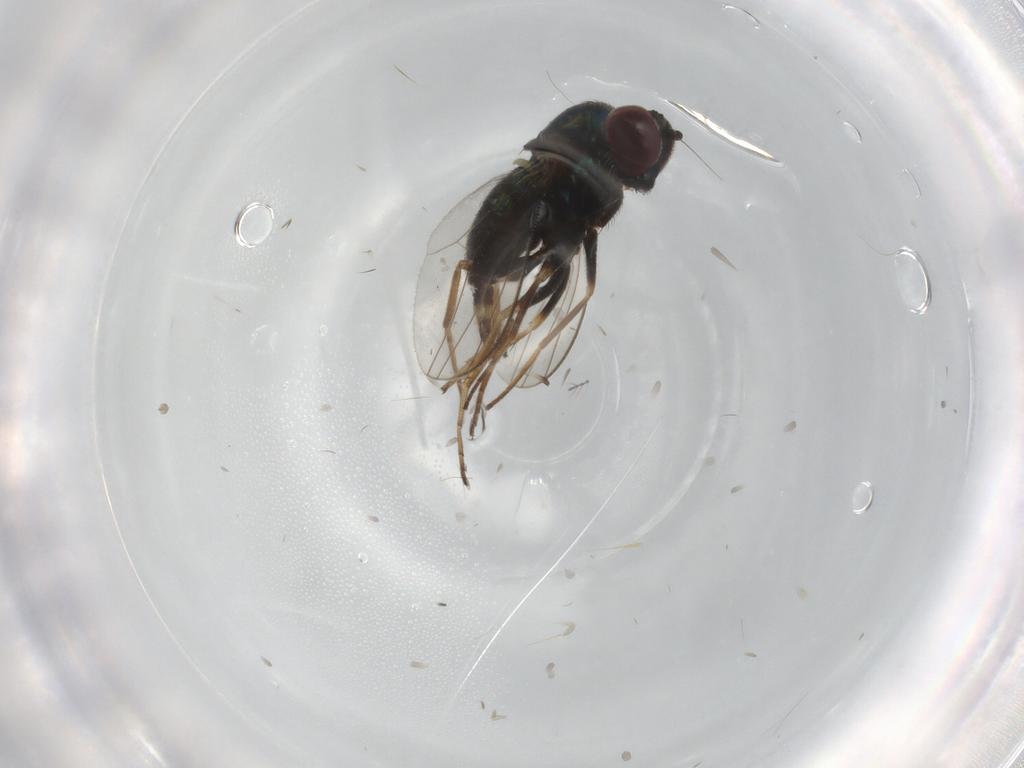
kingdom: Animalia
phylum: Arthropoda
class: Insecta
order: Diptera
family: Dolichopodidae
